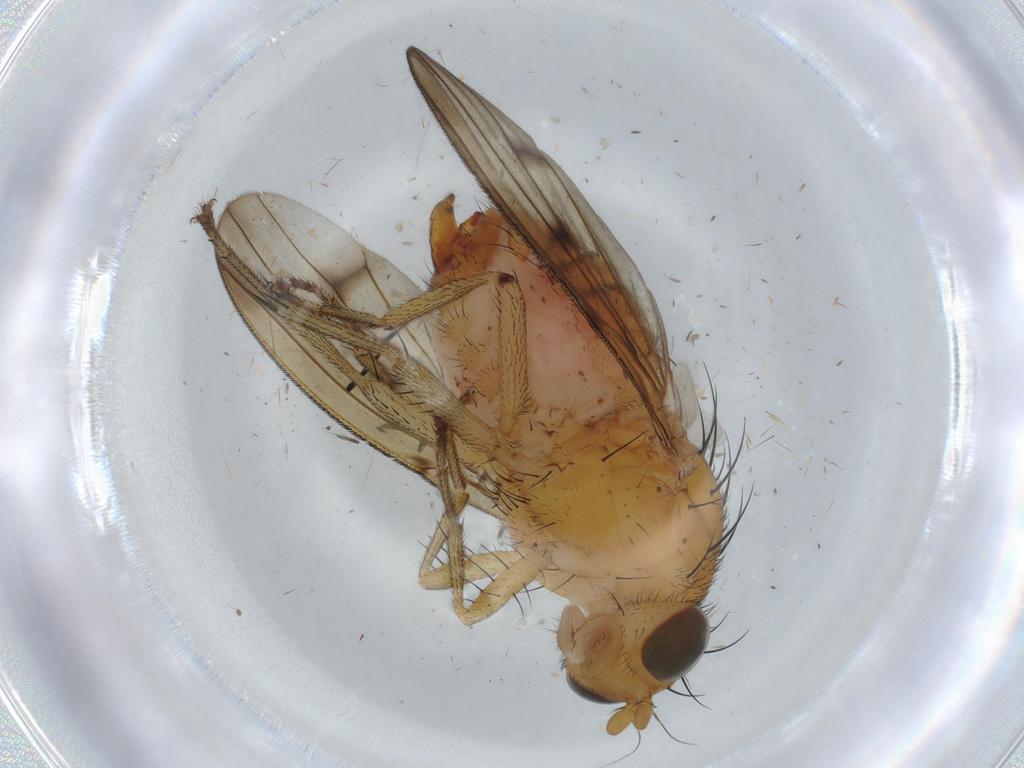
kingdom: Animalia
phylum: Arthropoda
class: Insecta
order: Diptera
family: Cecidomyiidae
